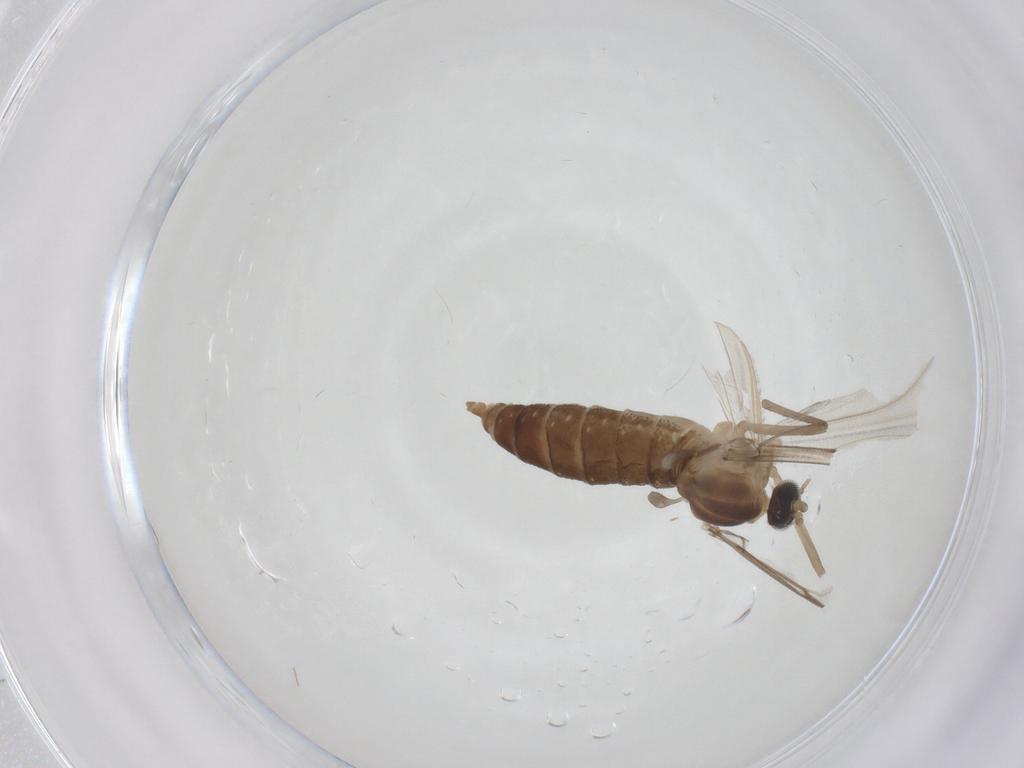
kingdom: Animalia
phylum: Arthropoda
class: Insecta
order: Diptera
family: Cecidomyiidae
